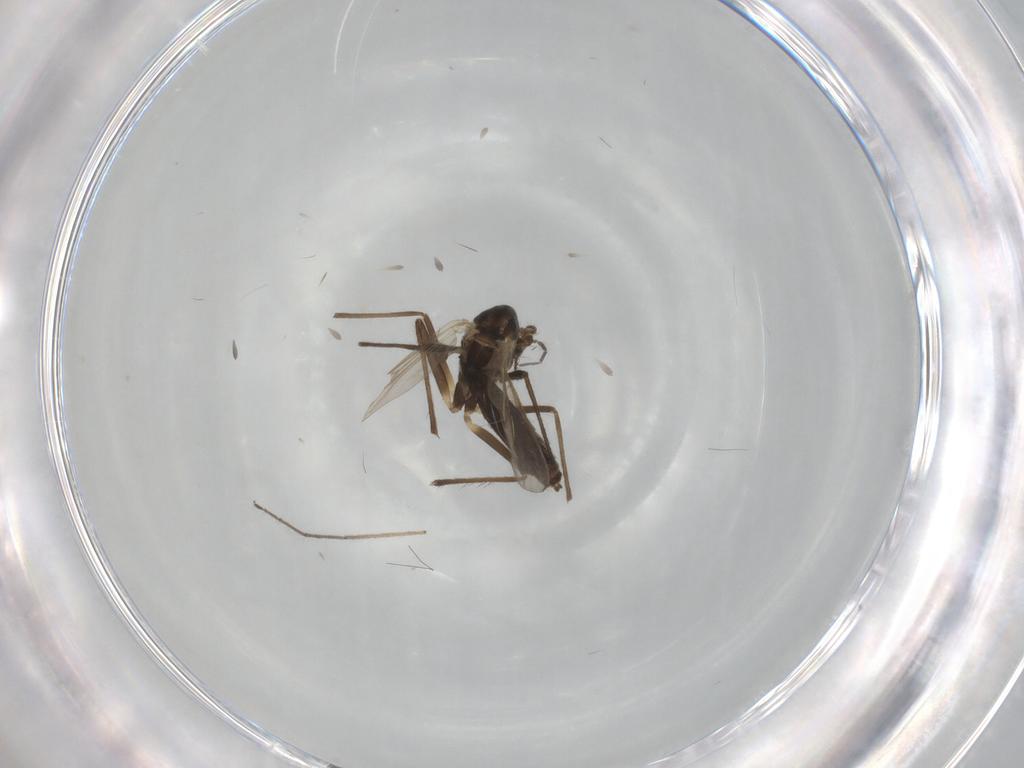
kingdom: Animalia
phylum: Arthropoda
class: Insecta
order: Diptera
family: Chironomidae
